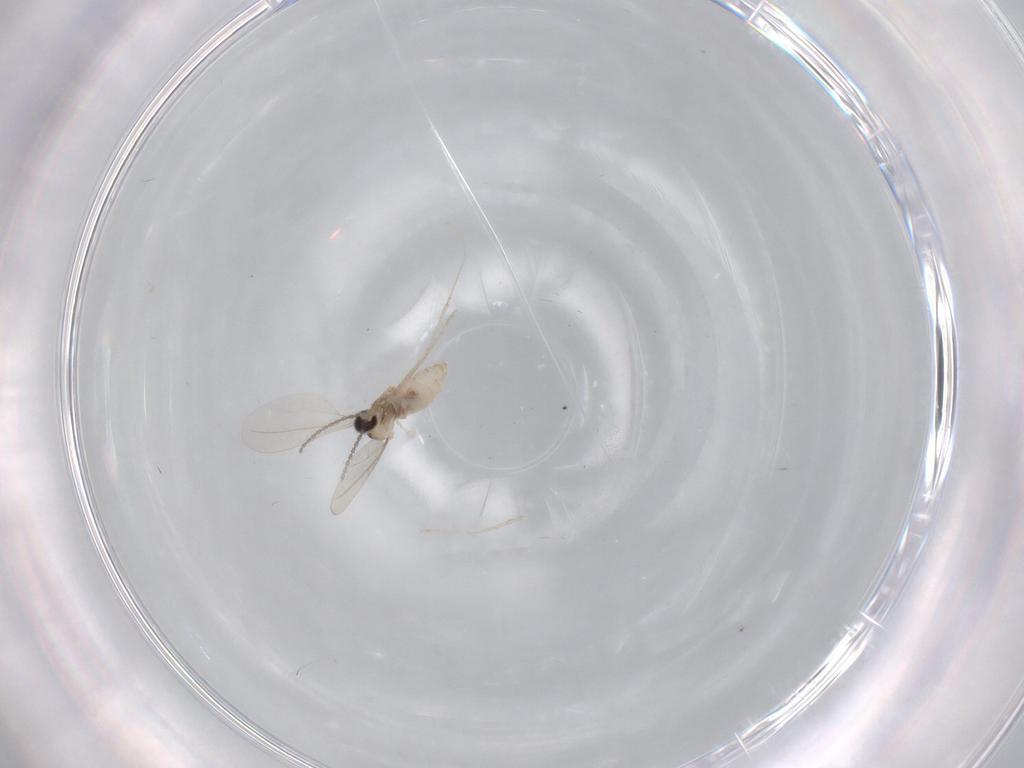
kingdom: Animalia
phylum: Arthropoda
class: Insecta
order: Diptera
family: Cecidomyiidae
